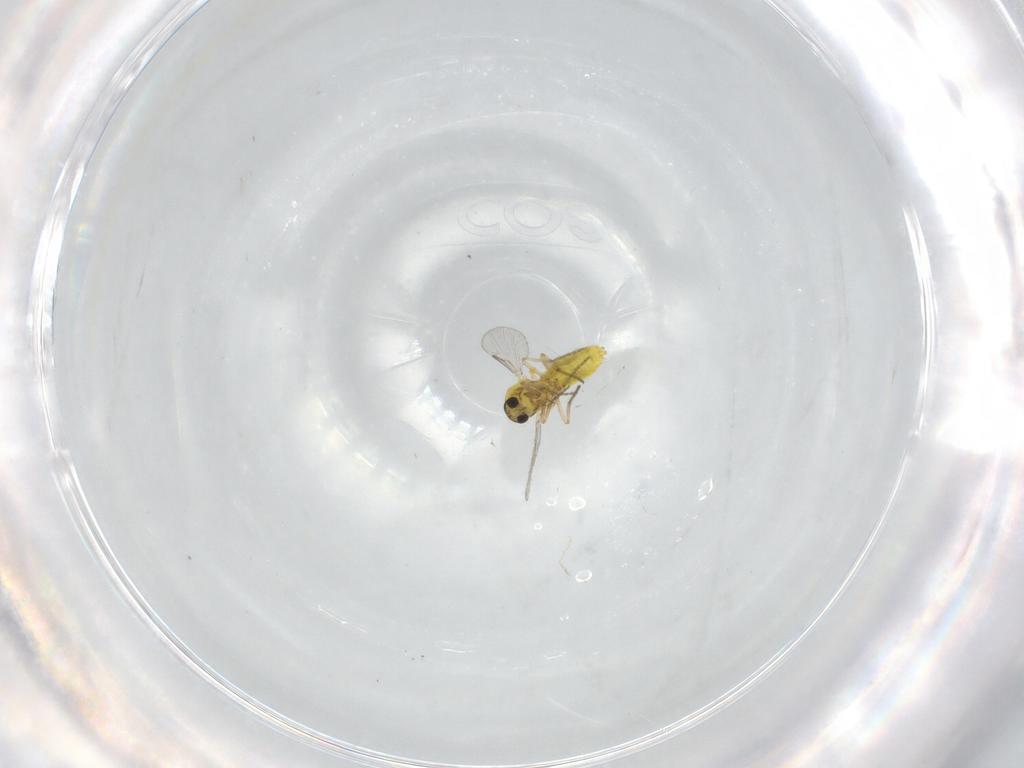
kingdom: Animalia
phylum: Arthropoda
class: Insecta
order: Diptera
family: Ceratopogonidae
